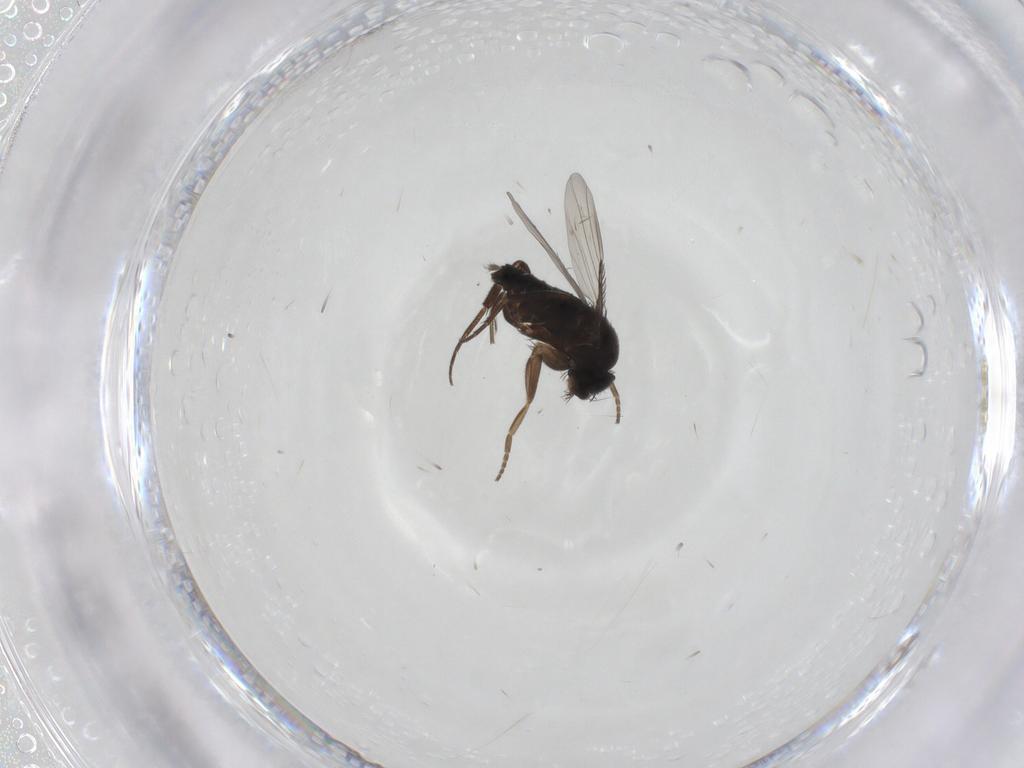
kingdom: Animalia
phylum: Arthropoda
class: Insecta
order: Diptera
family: Phoridae
